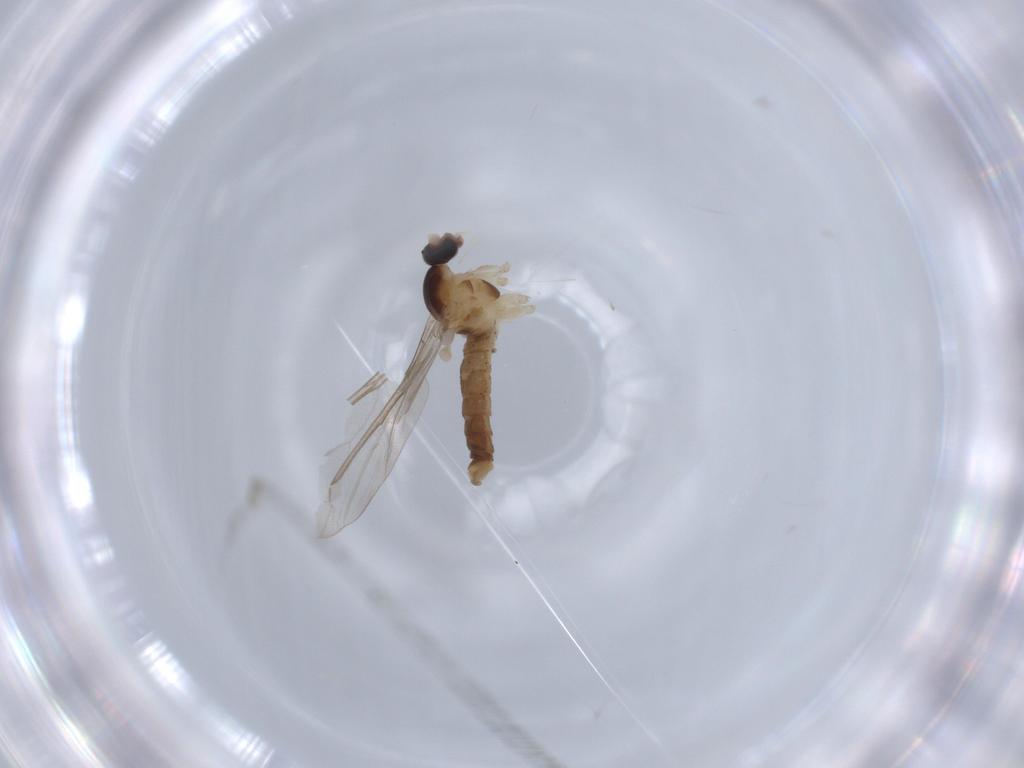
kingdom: Animalia
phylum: Arthropoda
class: Insecta
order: Diptera
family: Cecidomyiidae
